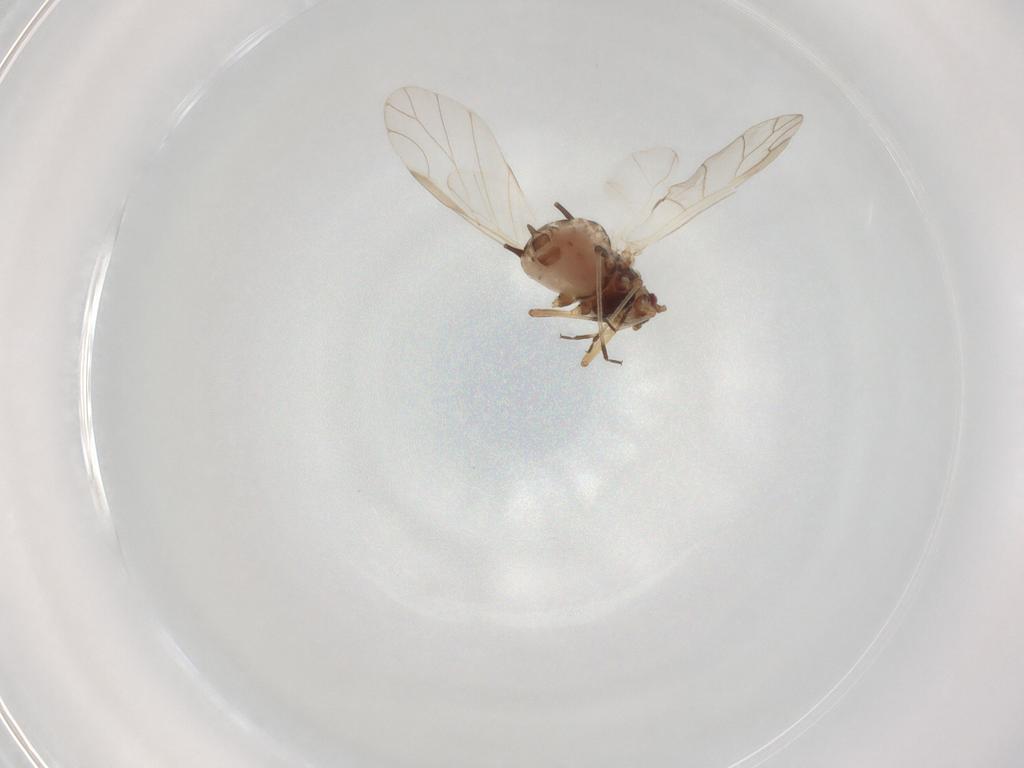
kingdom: Animalia
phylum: Arthropoda
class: Insecta
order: Hemiptera
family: Aphididae
